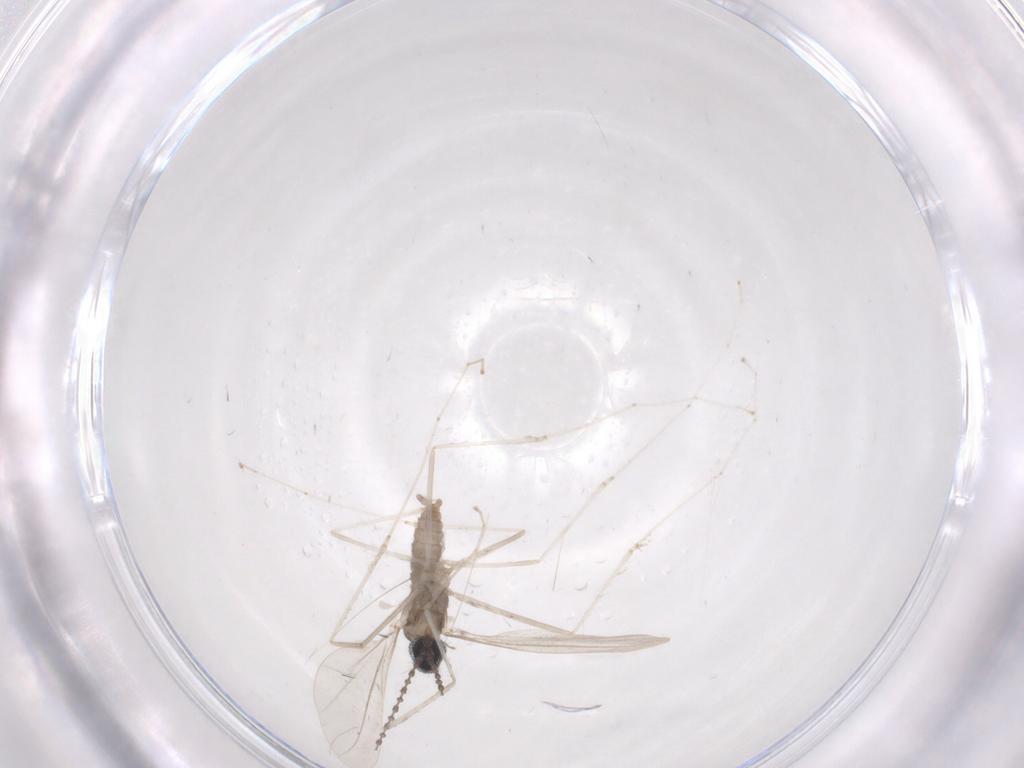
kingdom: Animalia
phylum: Arthropoda
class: Insecta
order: Diptera
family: Cecidomyiidae
